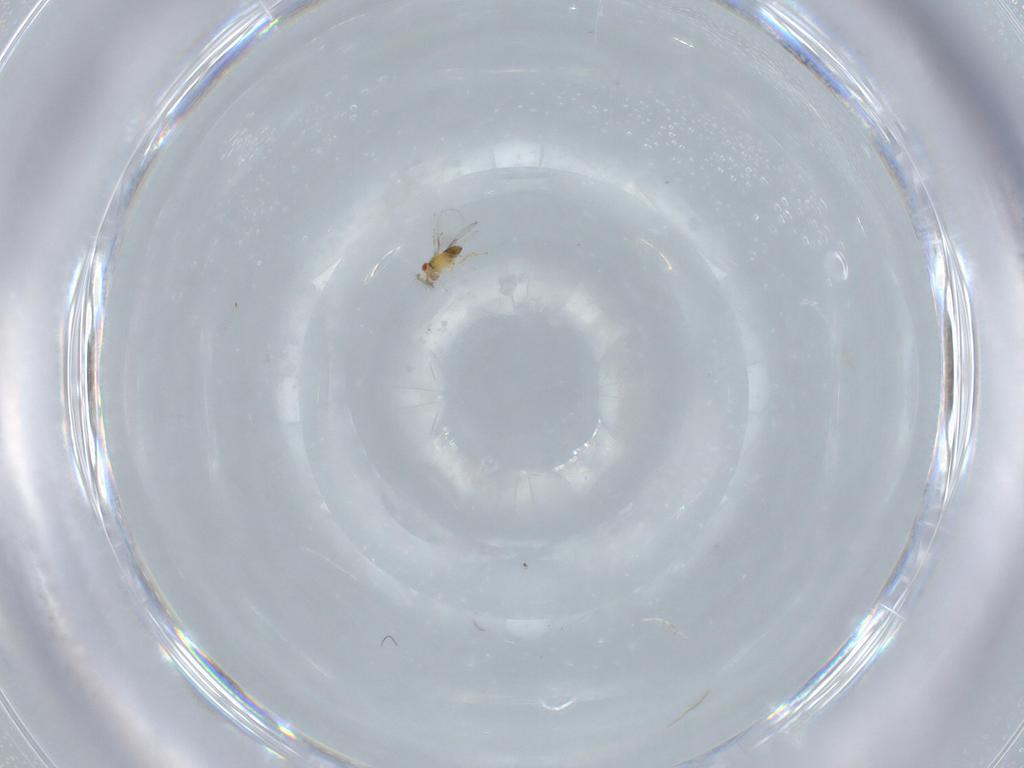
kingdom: Animalia
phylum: Arthropoda
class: Insecta
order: Hymenoptera
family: Trichogrammatidae
